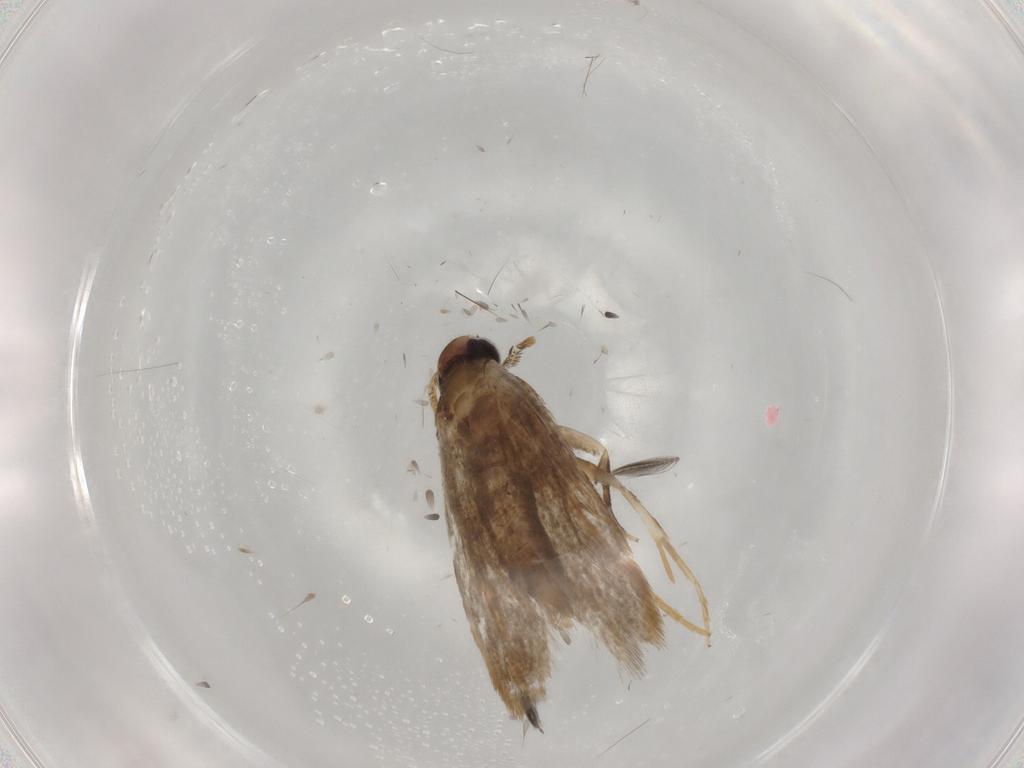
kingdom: Animalia
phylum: Arthropoda
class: Insecta
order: Lepidoptera
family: Coleophoridae
